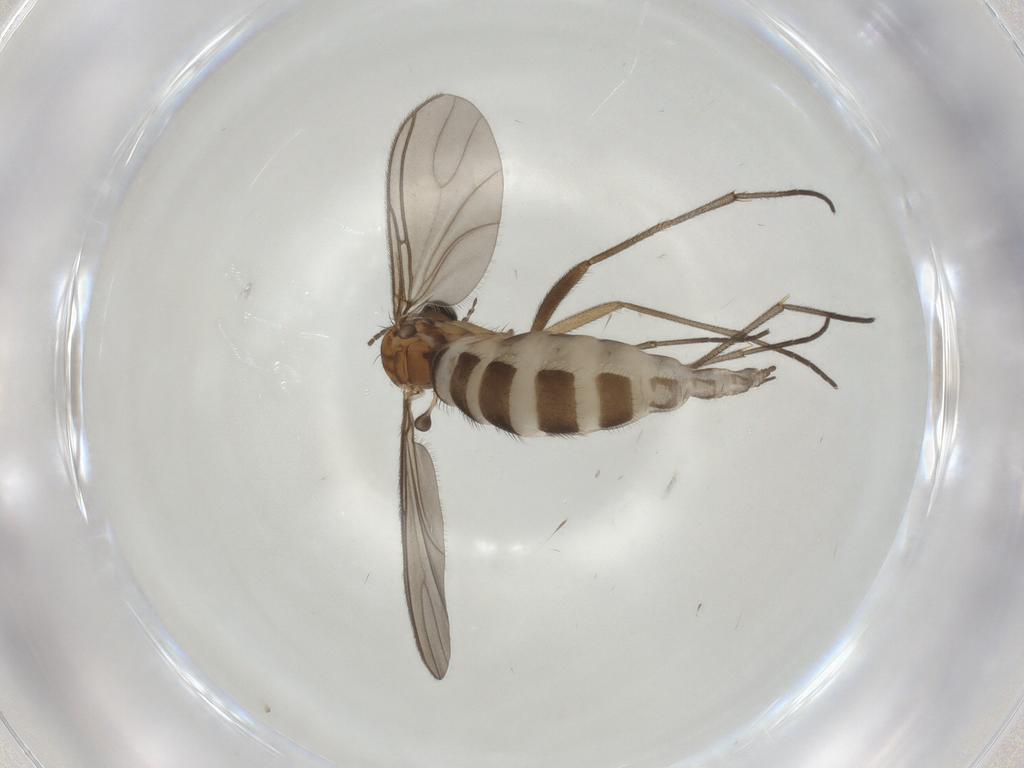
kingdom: Animalia
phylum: Arthropoda
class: Insecta
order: Diptera
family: Sciaridae
